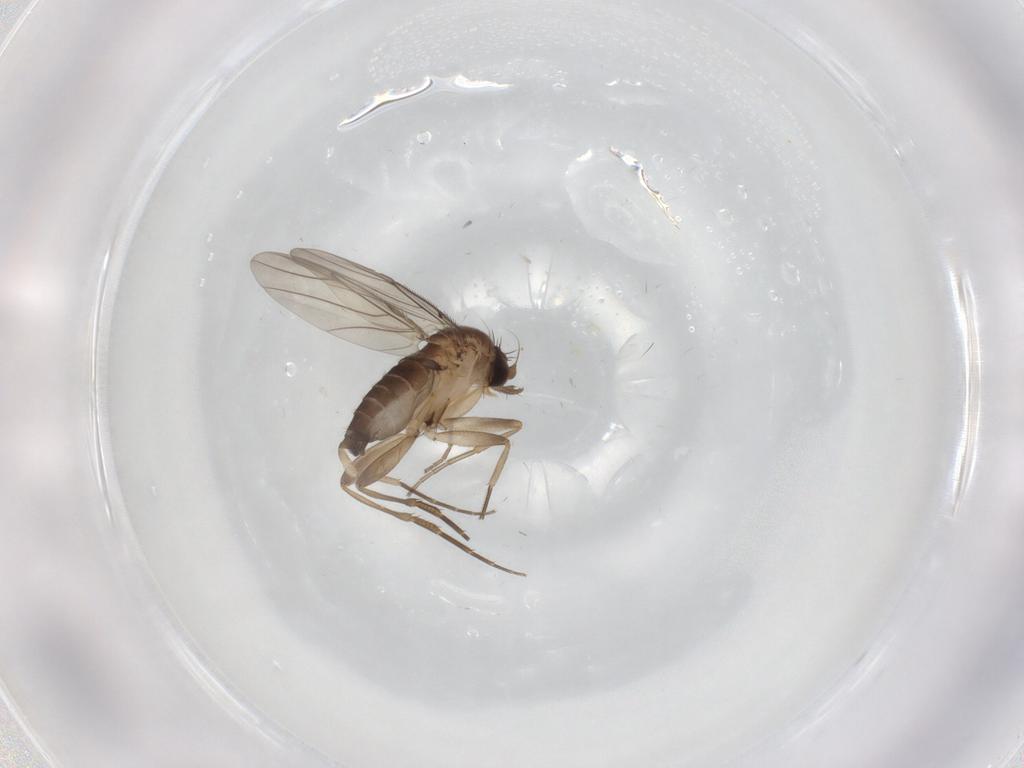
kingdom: Animalia
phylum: Arthropoda
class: Insecta
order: Diptera
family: Phoridae
